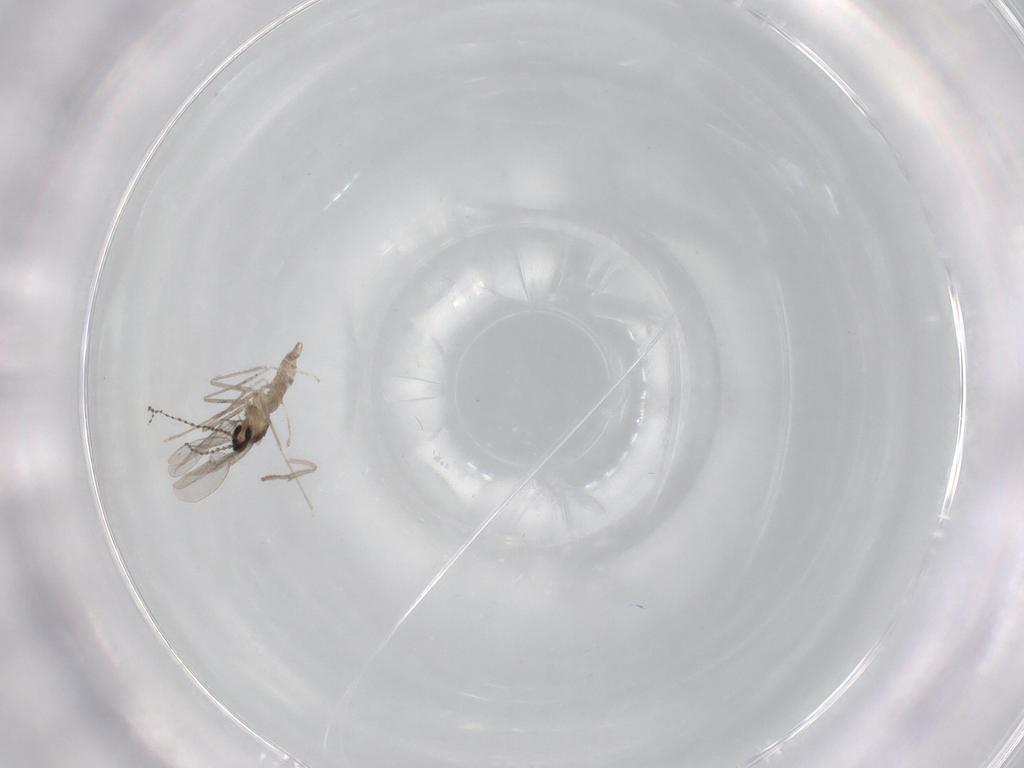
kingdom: Animalia
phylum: Arthropoda
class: Insecta
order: Diptera
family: Psychodidae
